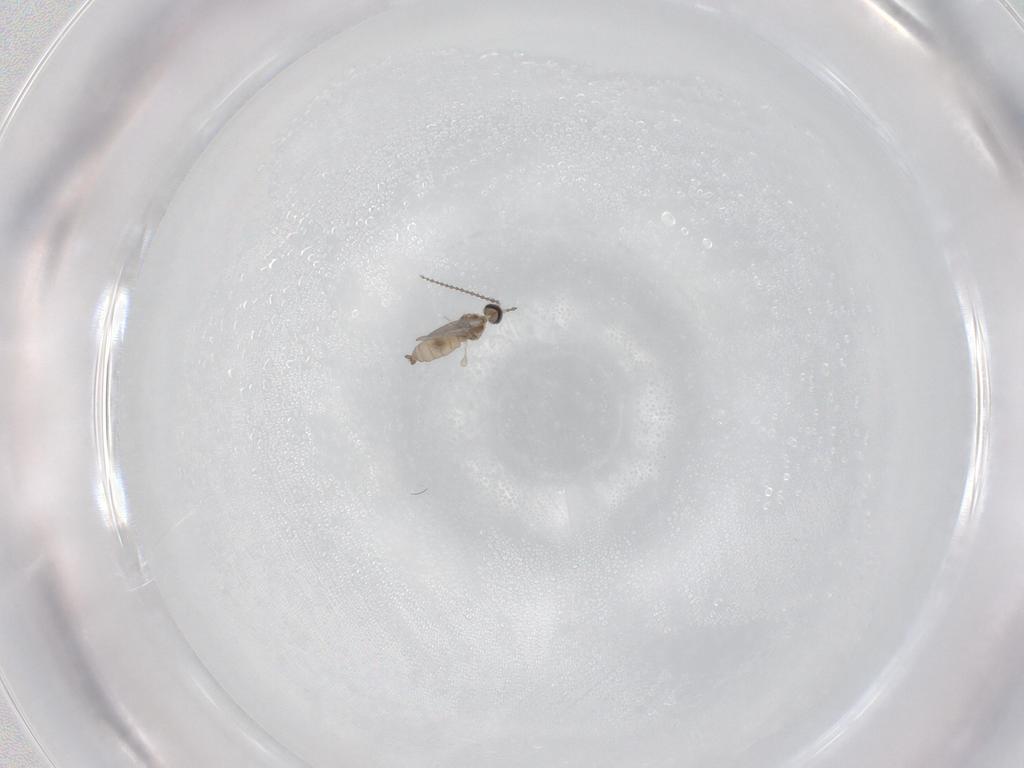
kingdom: Animalia
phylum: Arthropoda
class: Insecta
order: Diptera
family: Cecidomyiidae
